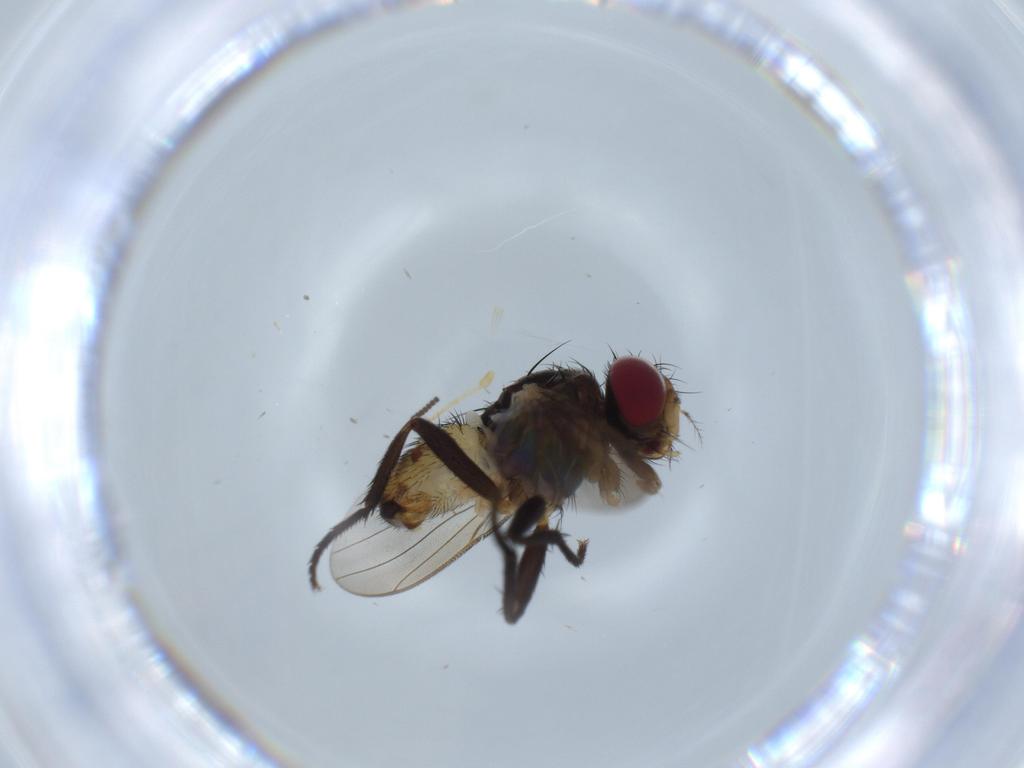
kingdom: Animalia
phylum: Arthropoda
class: Insecta
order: Diptera
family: Anthomyiidae
